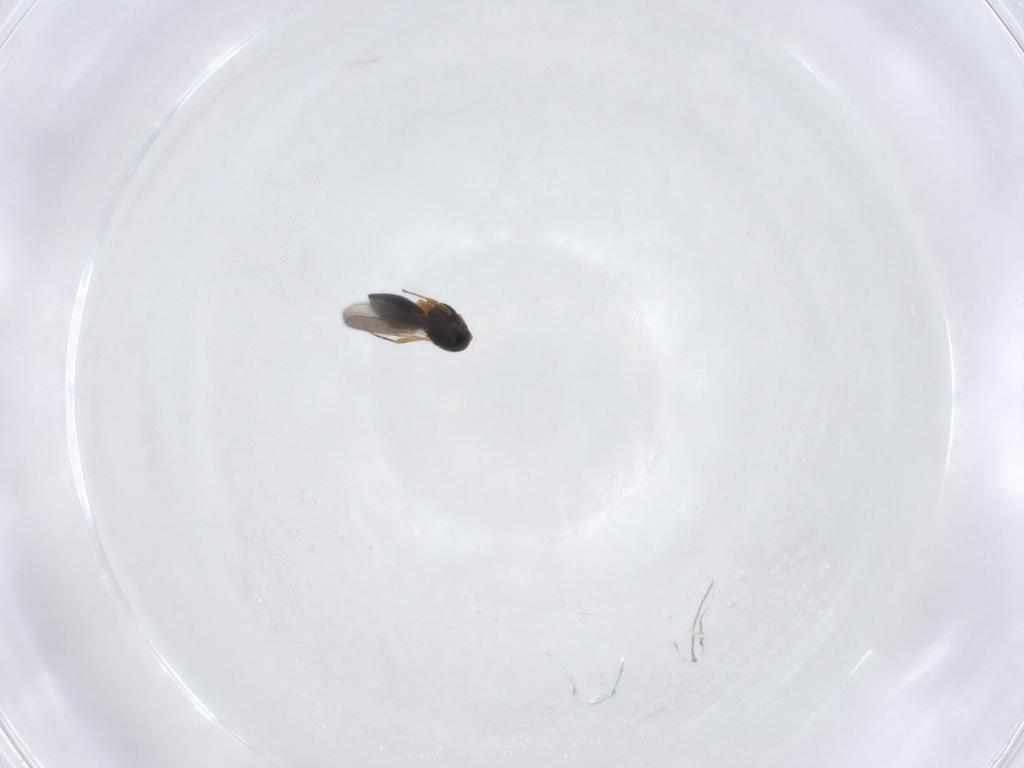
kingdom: Animalia
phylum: Arthropoda
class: Insecta
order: Hymenoptera
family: Scelionidae
